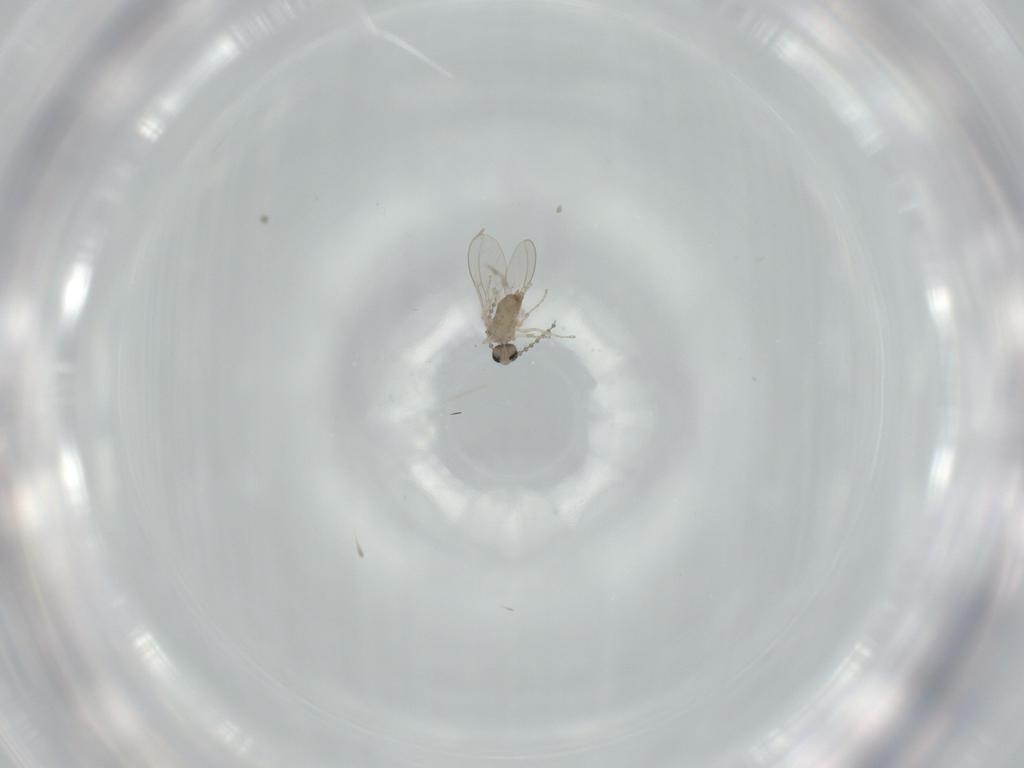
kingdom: Animalia
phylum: Arthropoda
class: Insecta
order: Diptera
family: Cecidomyiidae
